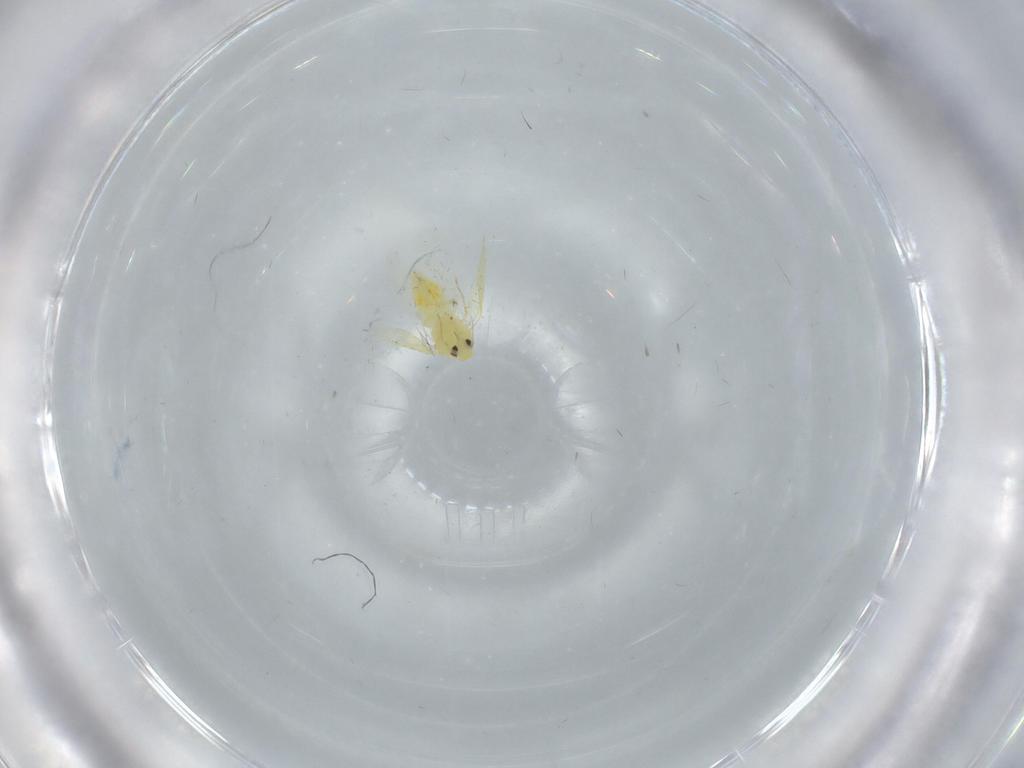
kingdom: Animalia
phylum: Arthropoda
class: Insecta
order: Hemiptera
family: Aleyrodidae
